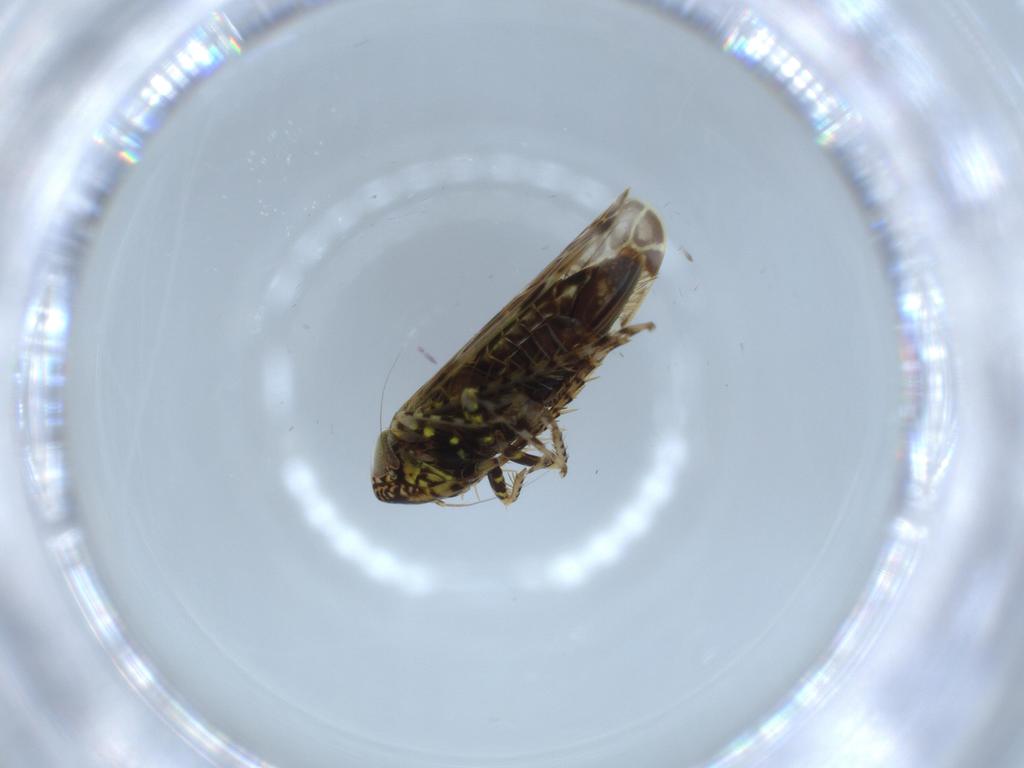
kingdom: Animalia
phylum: Arthropoda
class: Insecta
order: Hemiptera
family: Cicadellidae
